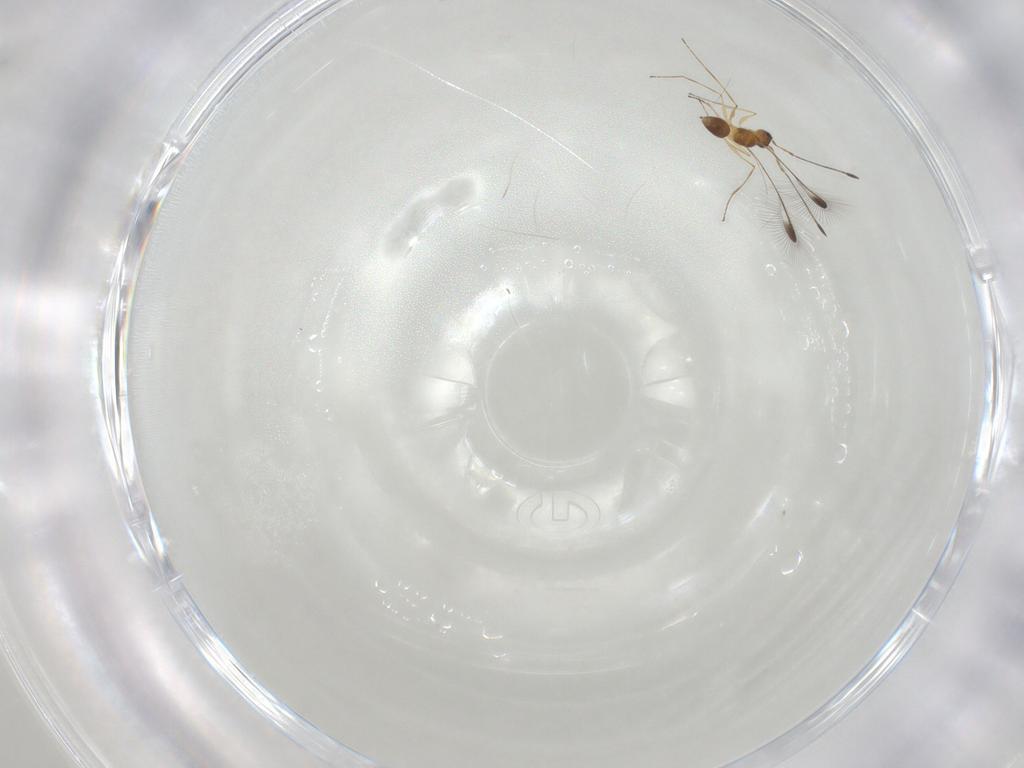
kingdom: Animalia
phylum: Arthropoda
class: Insecta
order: Hymenoptera
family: Mymaridae
